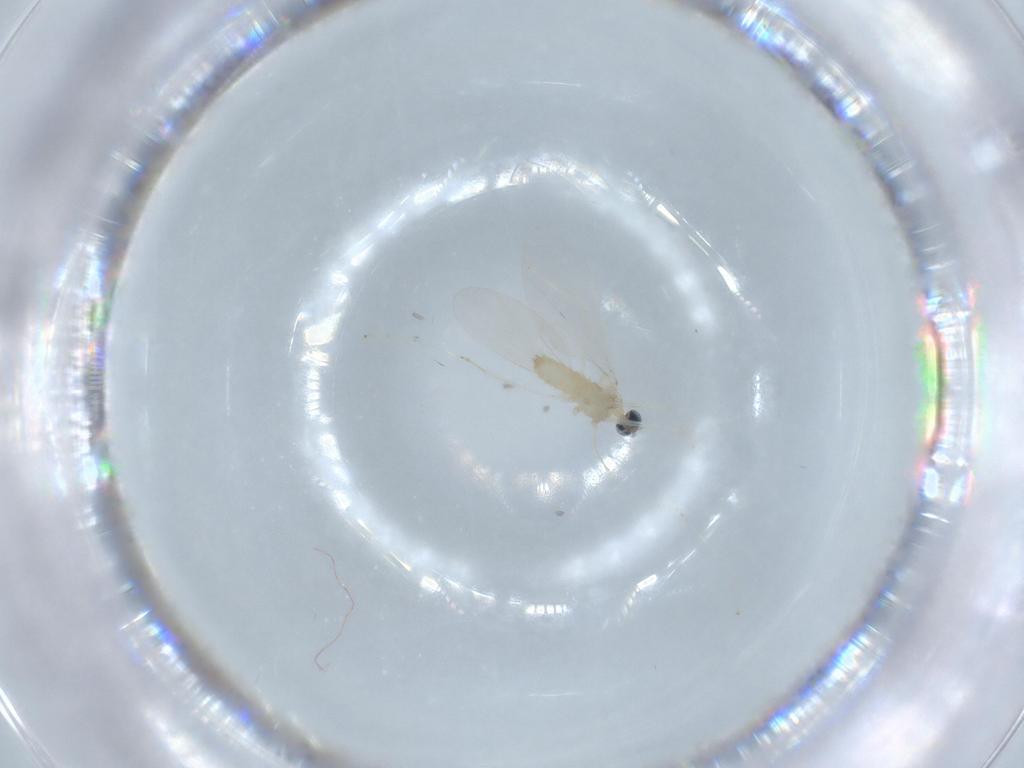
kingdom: Animalia
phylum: Arthropoda
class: Insecta
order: Diptera
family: Cecidomyiidae
